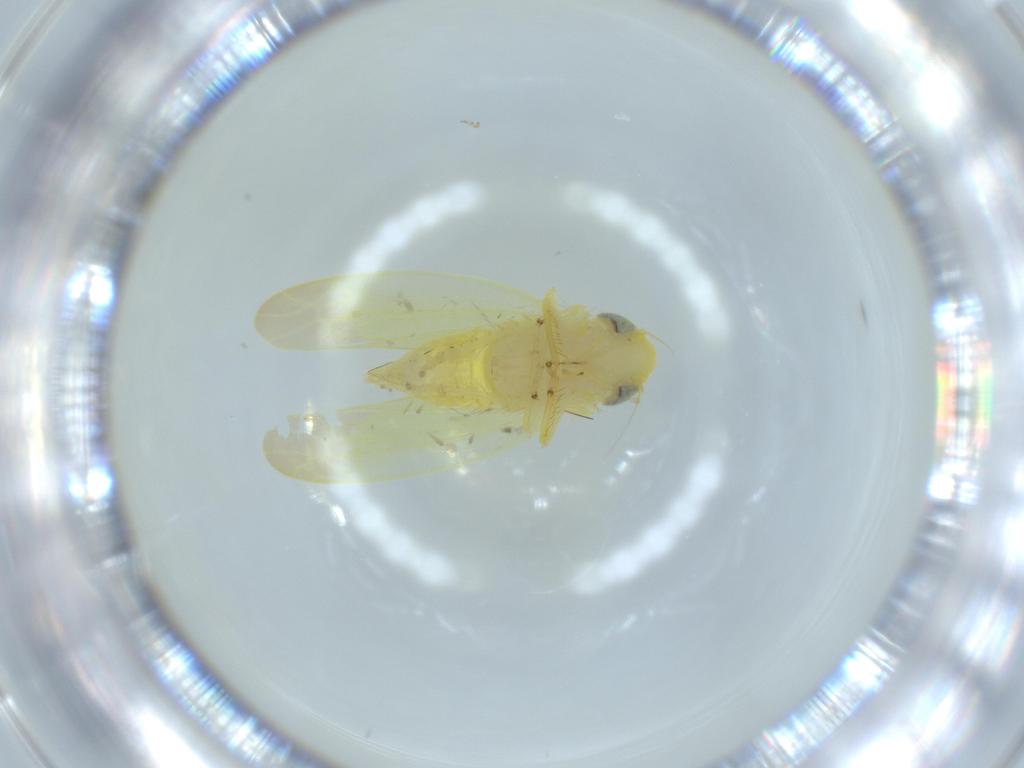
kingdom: Animalia
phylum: Arthropoda
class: Insecta
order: Hemiptera
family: Cicadellidae
